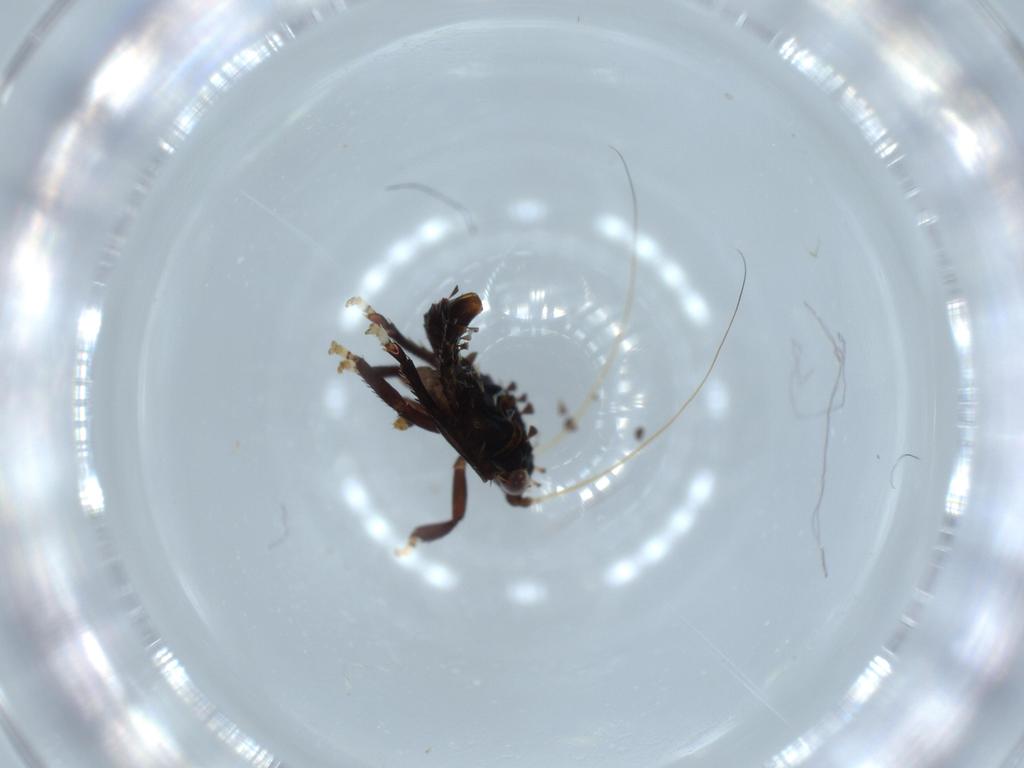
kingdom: Animalia
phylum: Arthropoda
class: Insecta
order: Hemiptera
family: Cicadellidae
